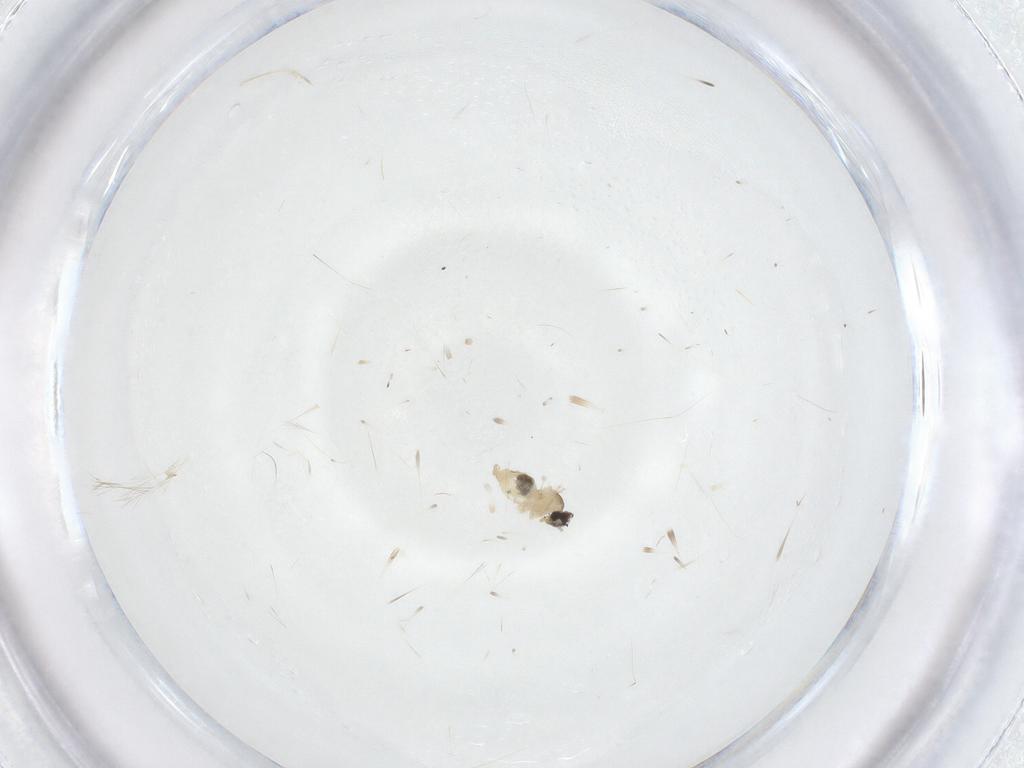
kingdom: Animalia
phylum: Arthropoda
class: Insecta
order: Diptera
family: Cecidomyiidae
